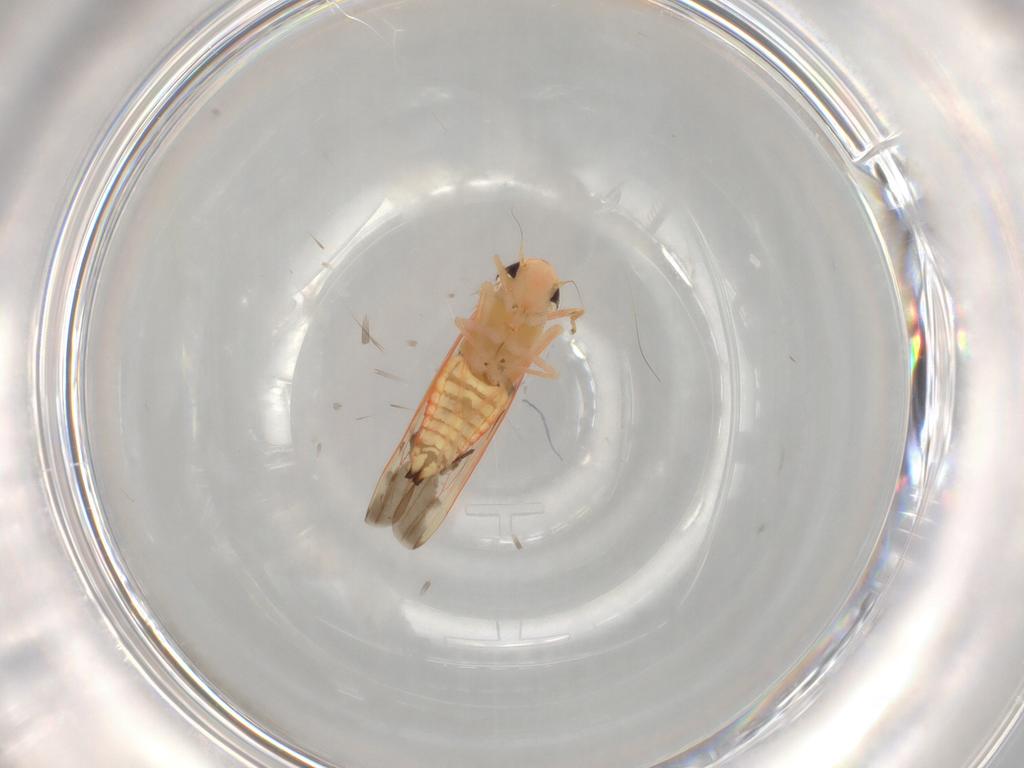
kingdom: Animalia
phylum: Arthropoda
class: Insecta
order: Hemiptera
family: Cicadellidae
